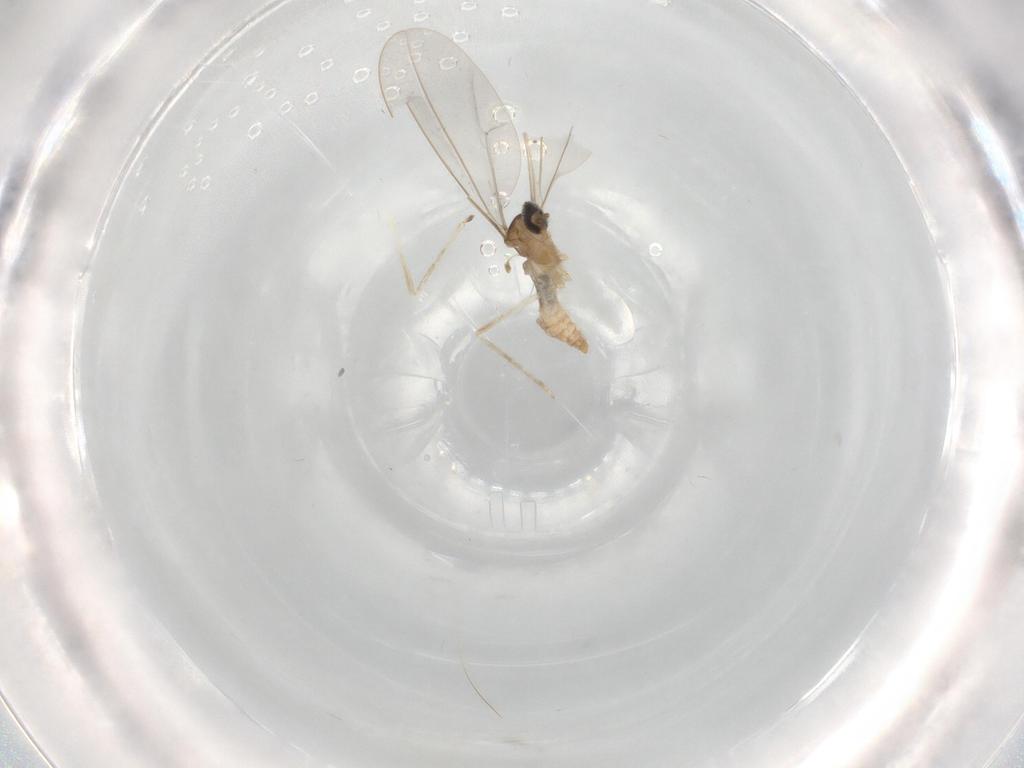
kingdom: Animalia
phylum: Arthropoda
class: Insecta
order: Diptera
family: Cecidomyiidae
